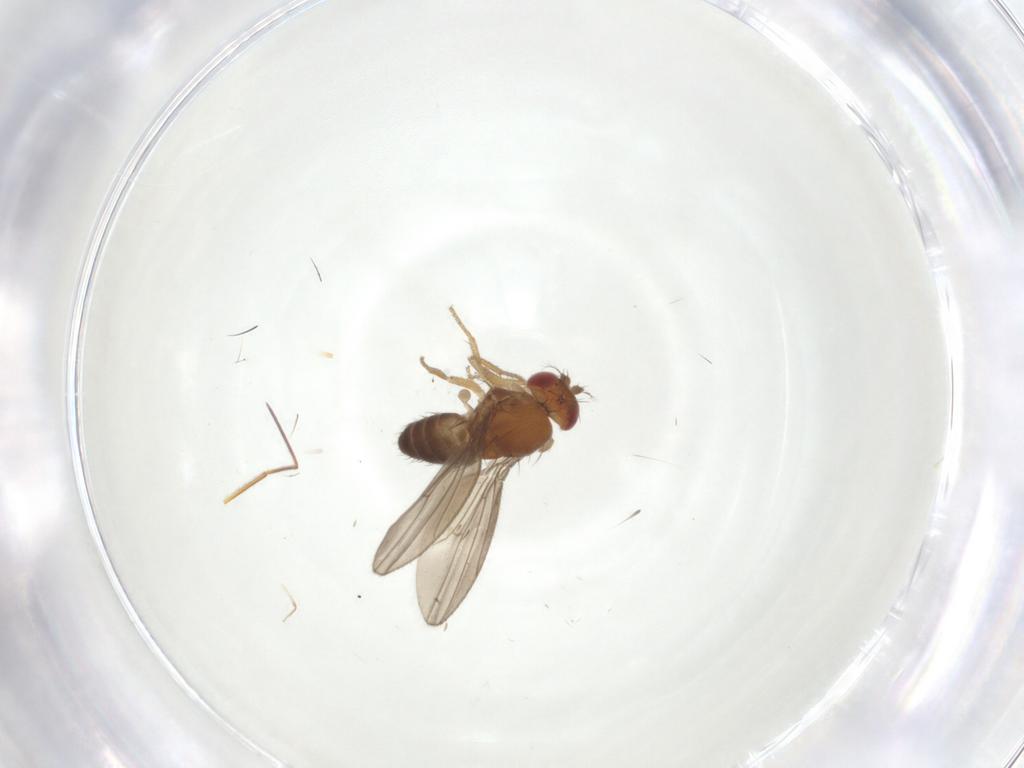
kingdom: Animalia
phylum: Arthropoda
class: Insecta
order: Diptera
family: Drosophilidae
